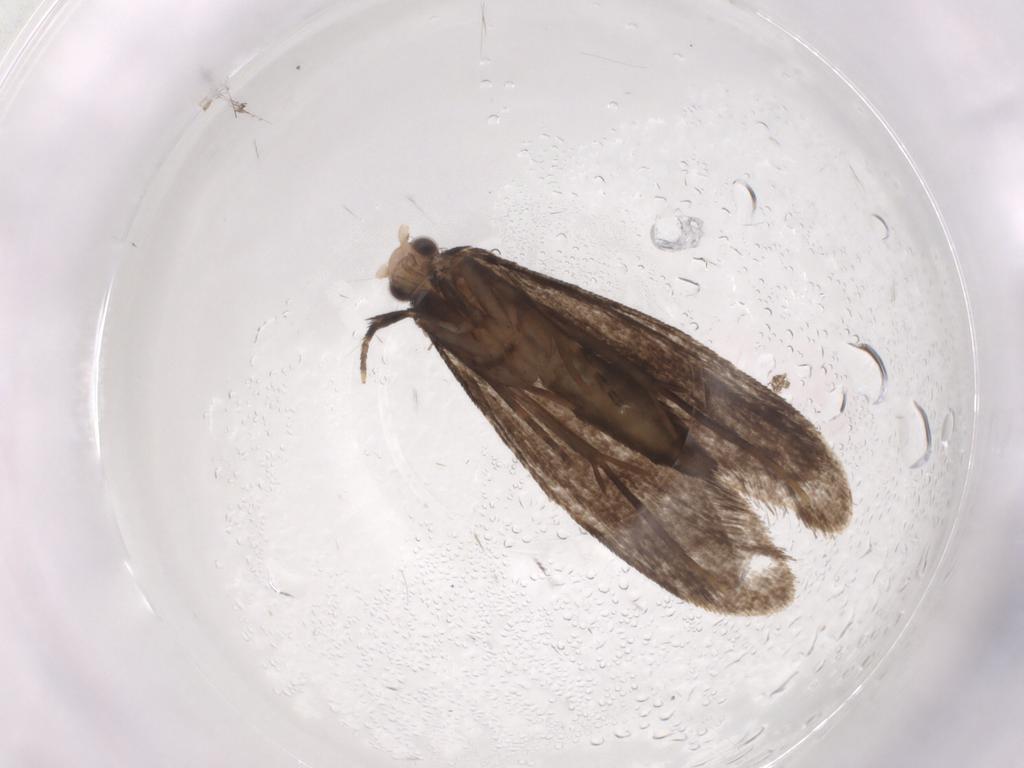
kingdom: Animalia
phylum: Arthropoda
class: Insecta
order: Lepidoptera
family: Tineidae
